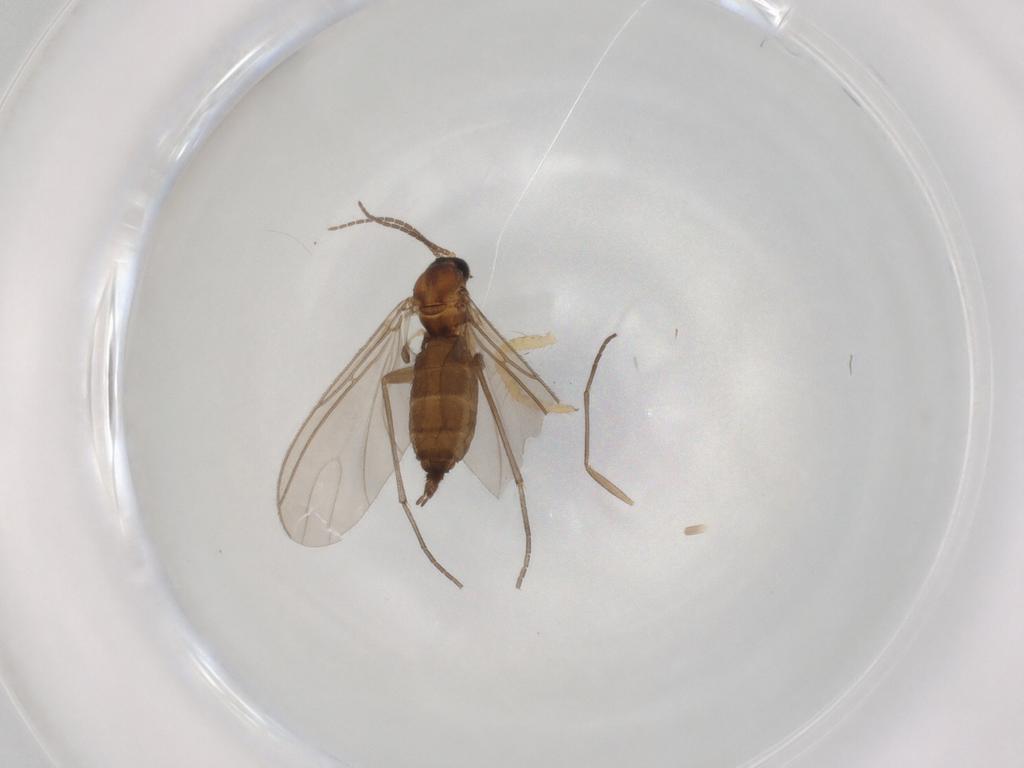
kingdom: Animalia
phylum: Arthropoda
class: Insecta
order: Diptera
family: Sciaridae
